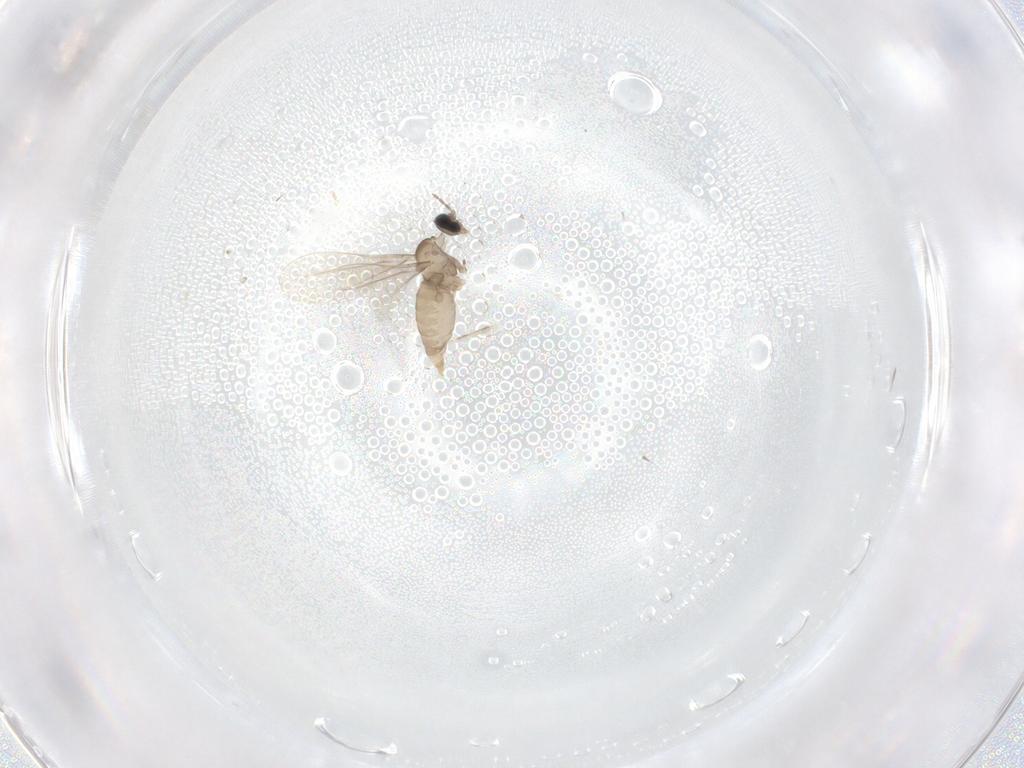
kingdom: Animalia
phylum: Arthropoda
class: Insecta
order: Diptera
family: Cecidomyiidae
